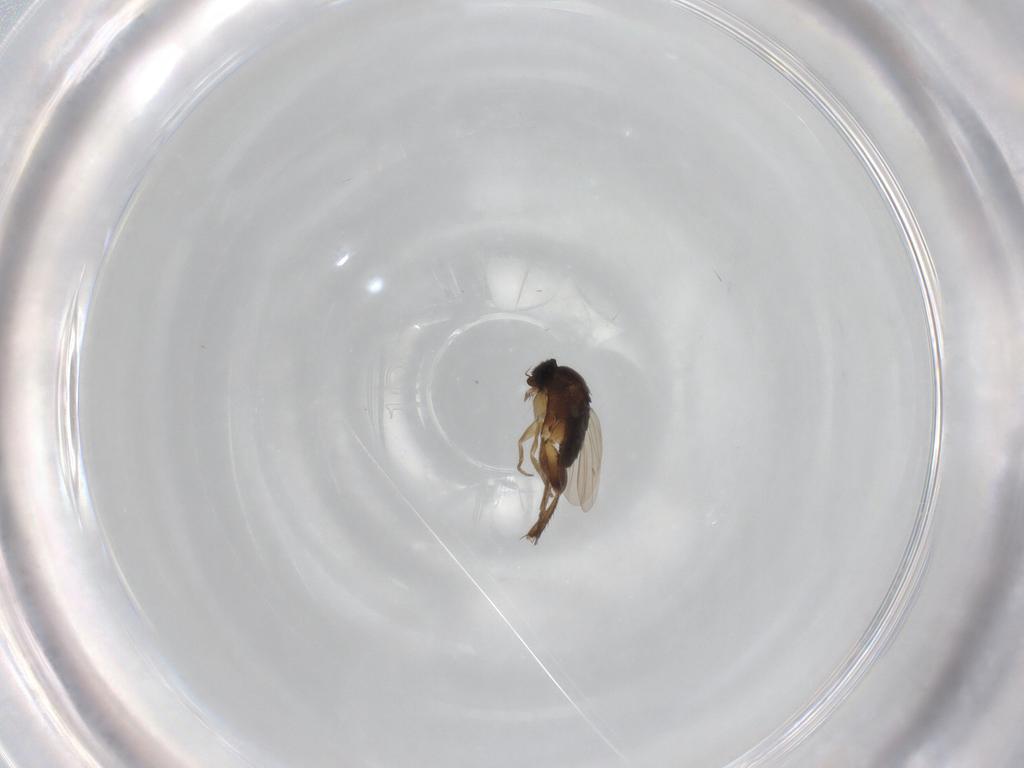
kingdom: Animalia
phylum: Arthropoda
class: Insecta
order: Diptera
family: Phoridae
